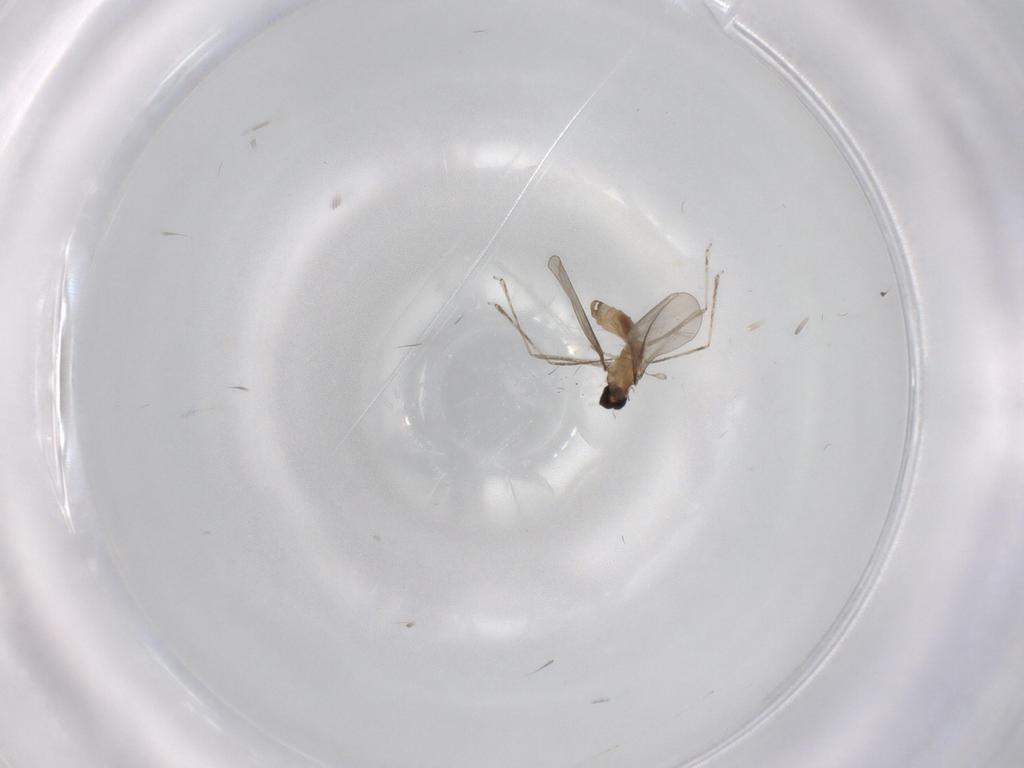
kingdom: Animalia
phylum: Arthropoda
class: Insecta
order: Diptera
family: Cecidomyiidae
